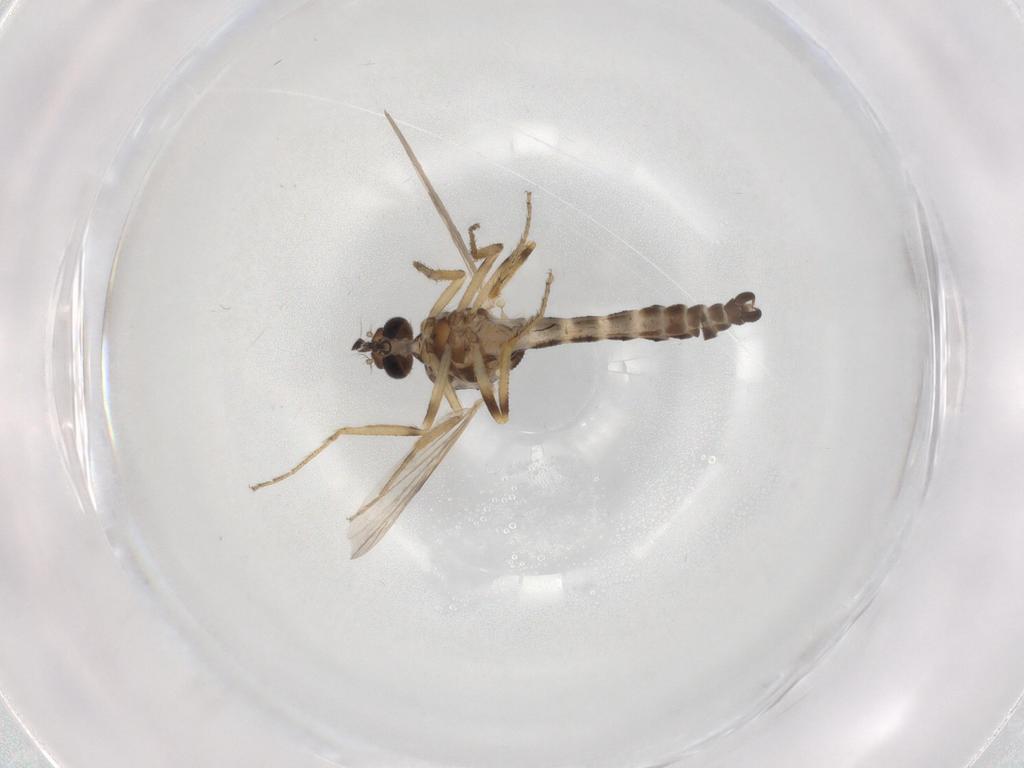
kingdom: Animalia
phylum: Arthropoda
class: Insecta
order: Diptera
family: Ceratopogonidae
